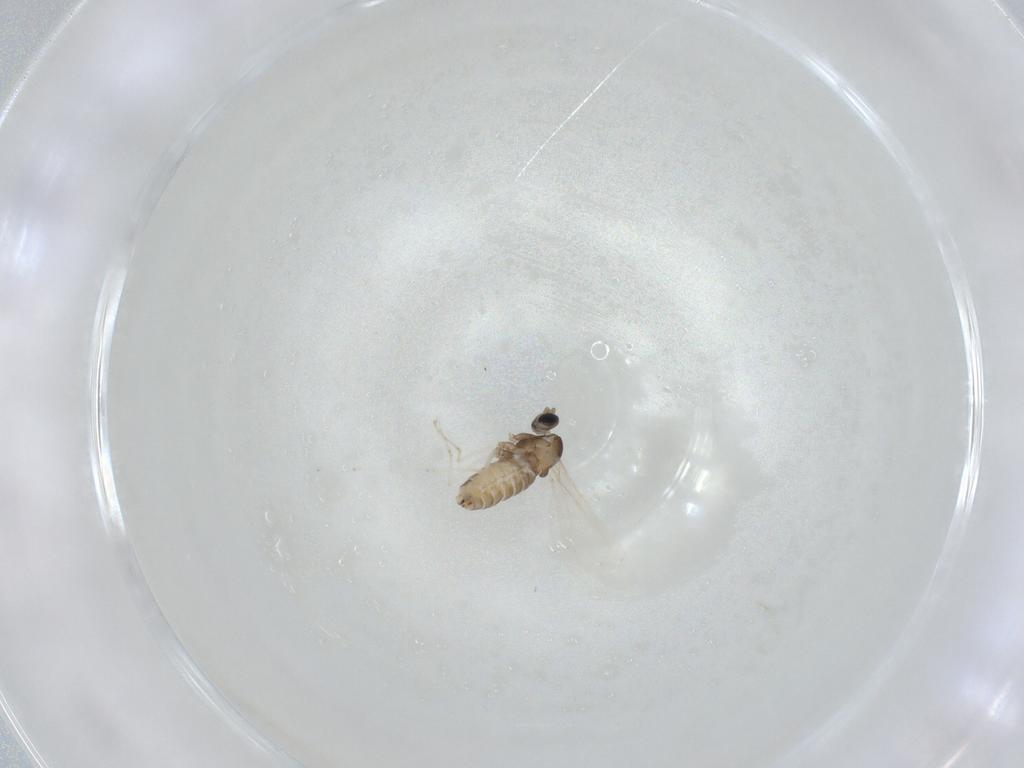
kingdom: Animalia
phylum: Arthropoda
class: Insecta
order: Diptera
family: Cecidomyiidae
